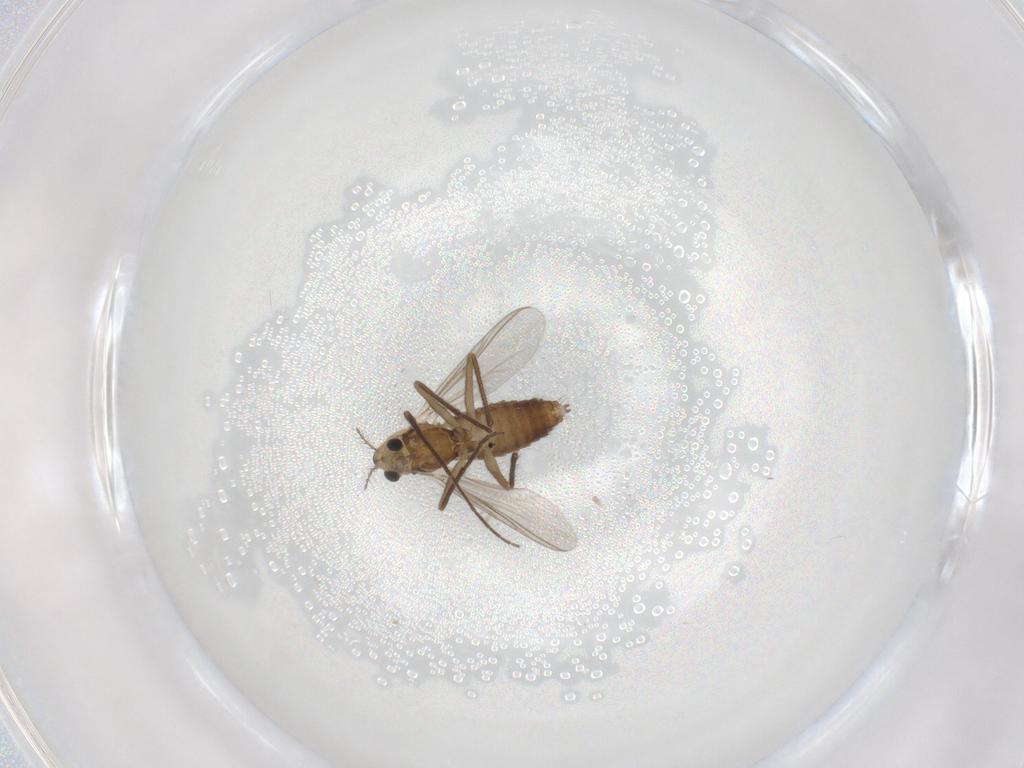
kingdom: Animalia
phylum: Arthropoda
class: Insecta
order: Diptera
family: Chironomidae
